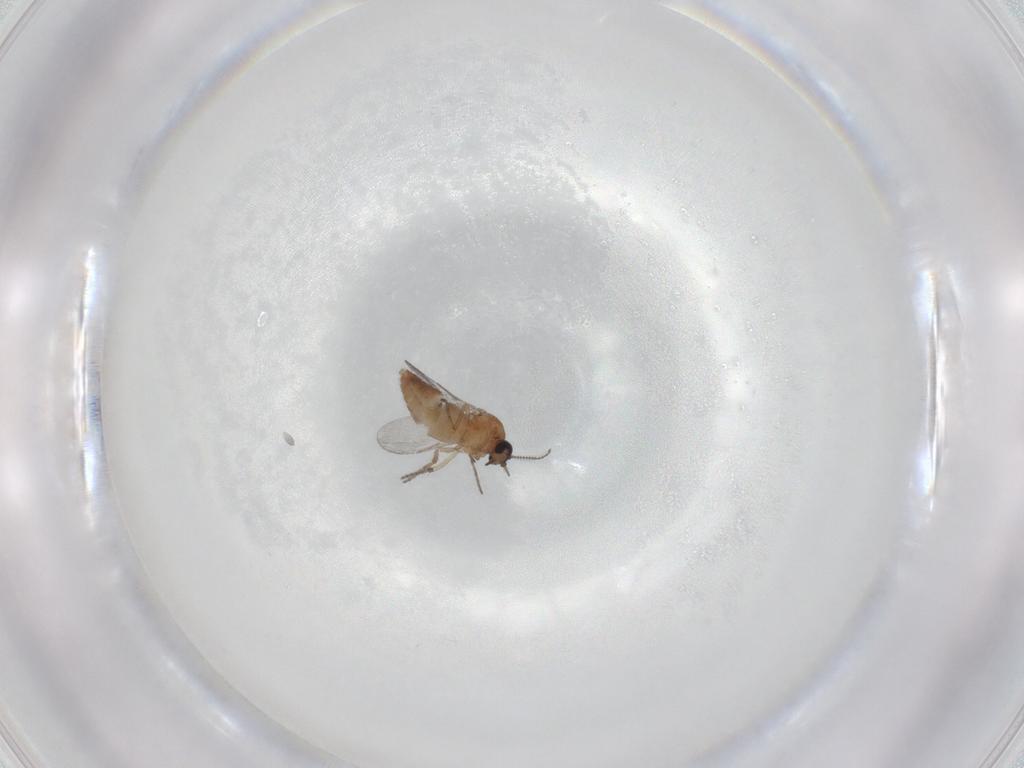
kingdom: Animalia
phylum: Arthropoda
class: Insecta
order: Diptera
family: Ceratopogonidae
